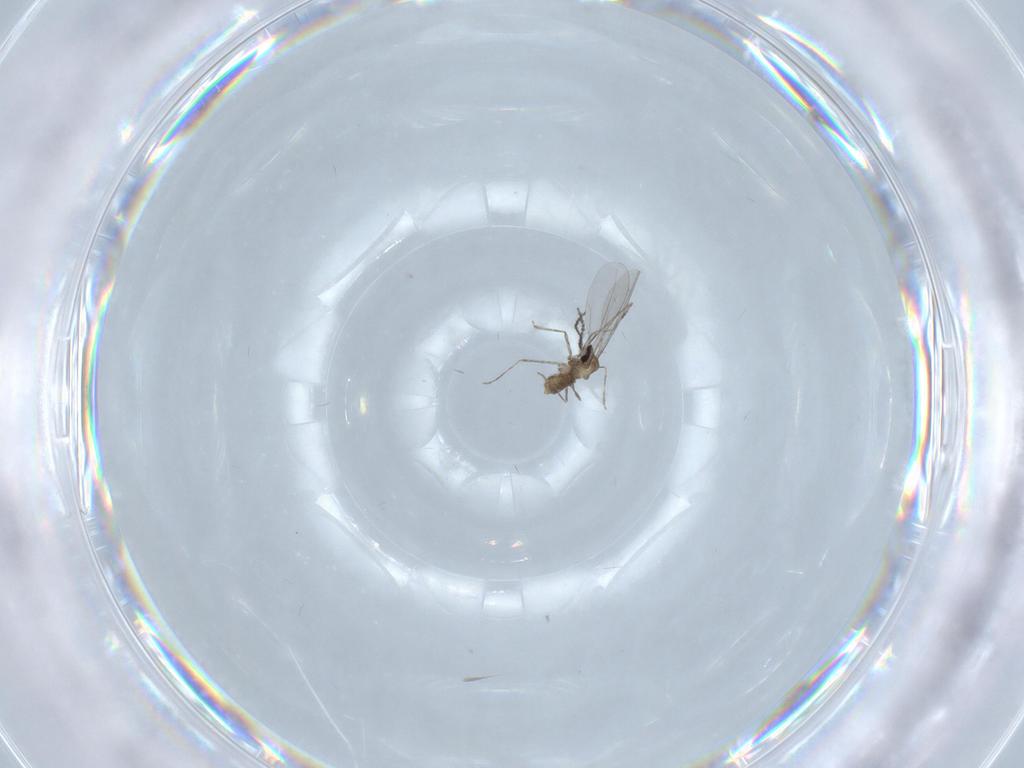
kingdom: Animalia
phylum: Arthropoda
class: Insecta
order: Diptera
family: Cecidomyiidae
